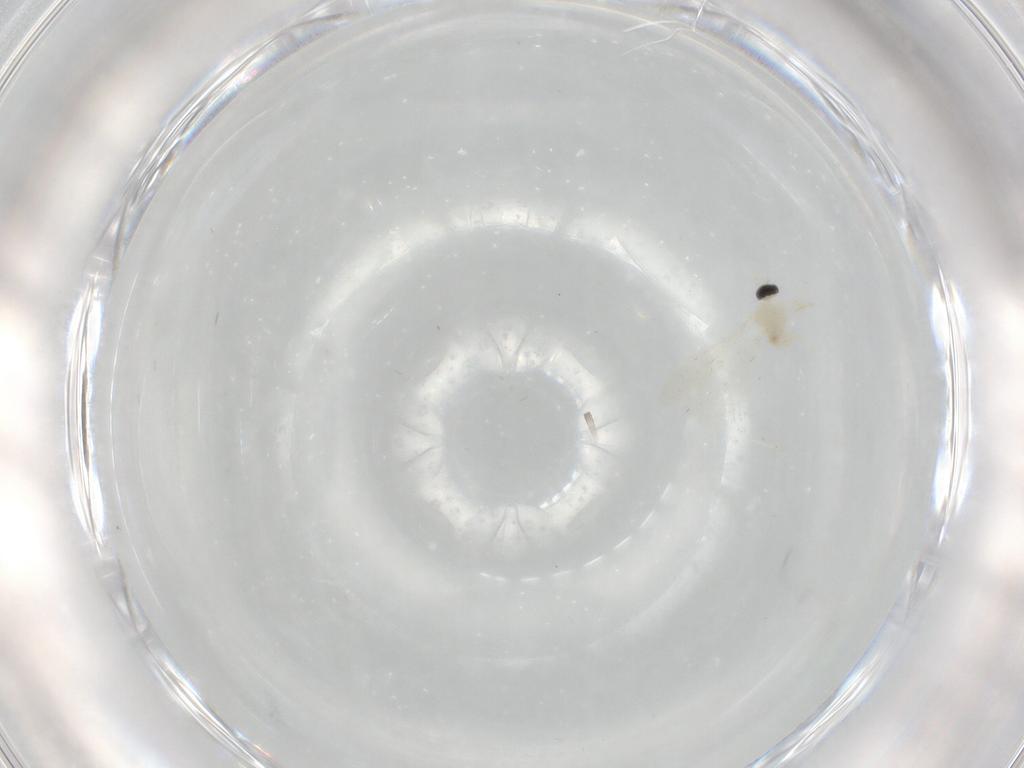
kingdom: Animalia
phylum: Arthropoda
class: Insecta
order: Diptera
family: Cecidomyiidae
